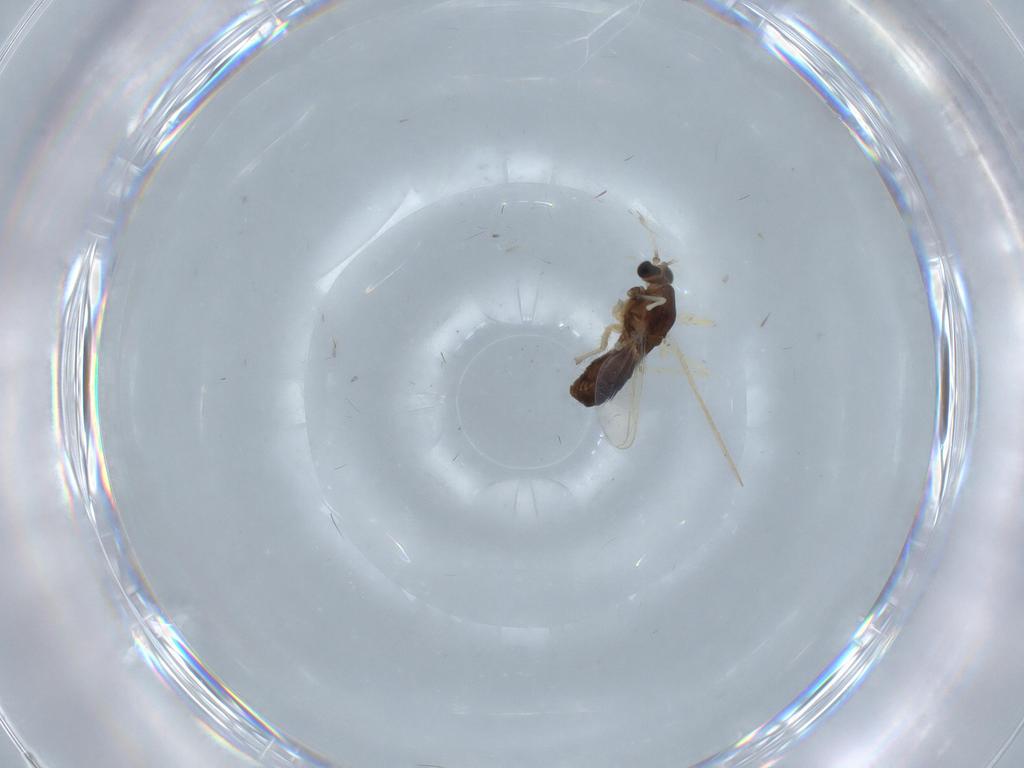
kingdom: Animalia
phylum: Arthropoda
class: Insecta
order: Diptera
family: Chironomidae
